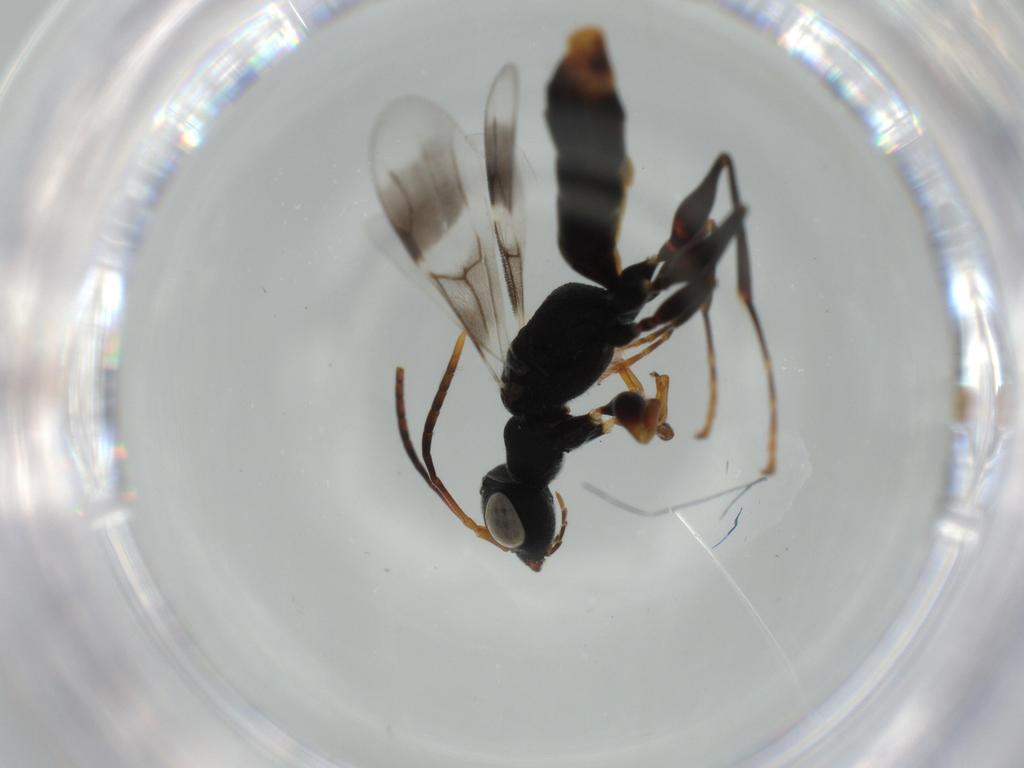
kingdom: Animalia
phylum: Arthropoda
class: Insecta
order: Hymenoptera
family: Dryinidae
